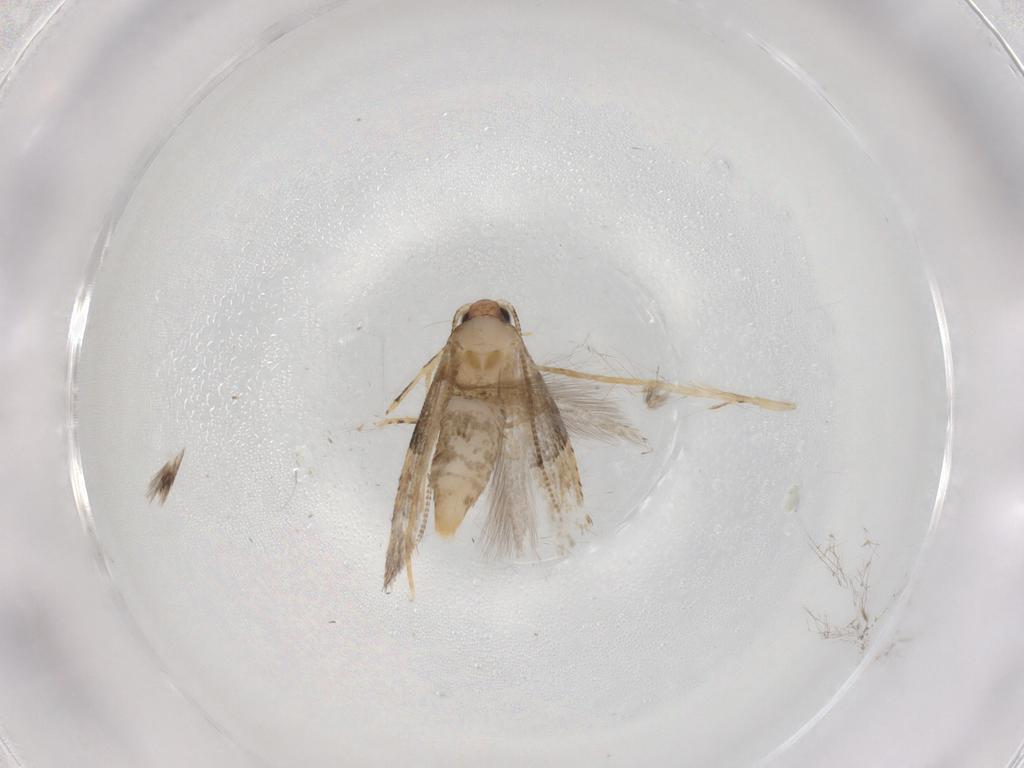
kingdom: Animalia
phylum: Arthropoda
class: Insecta
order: Lepidoptera
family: Tineidae
